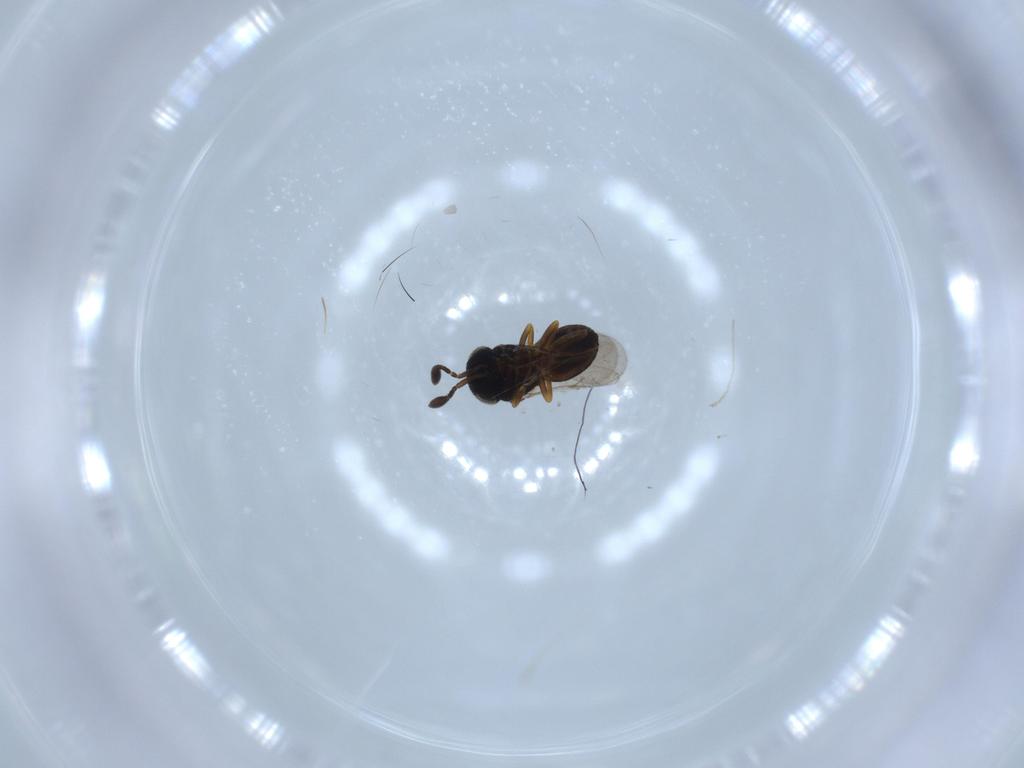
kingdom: Animalia
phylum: Arthropoda
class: Insecta
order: Coleoptera
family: Curculionidae
